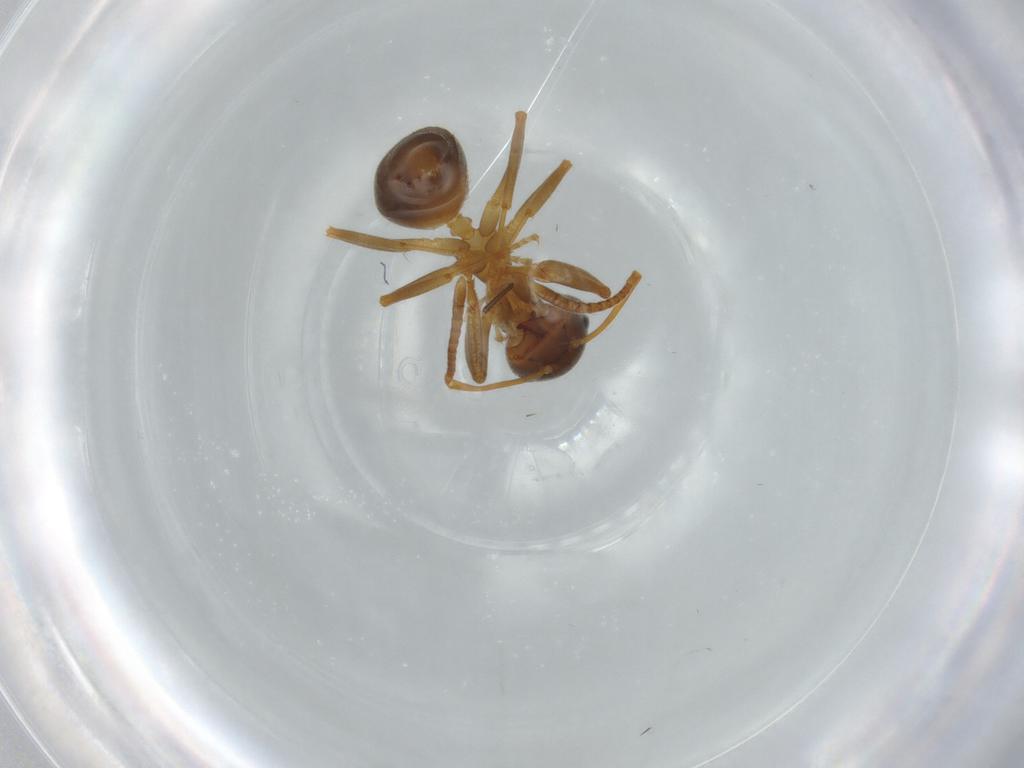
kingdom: Animalia
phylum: Arthropoda
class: Insecta
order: Hymenoptera
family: Formicidae
